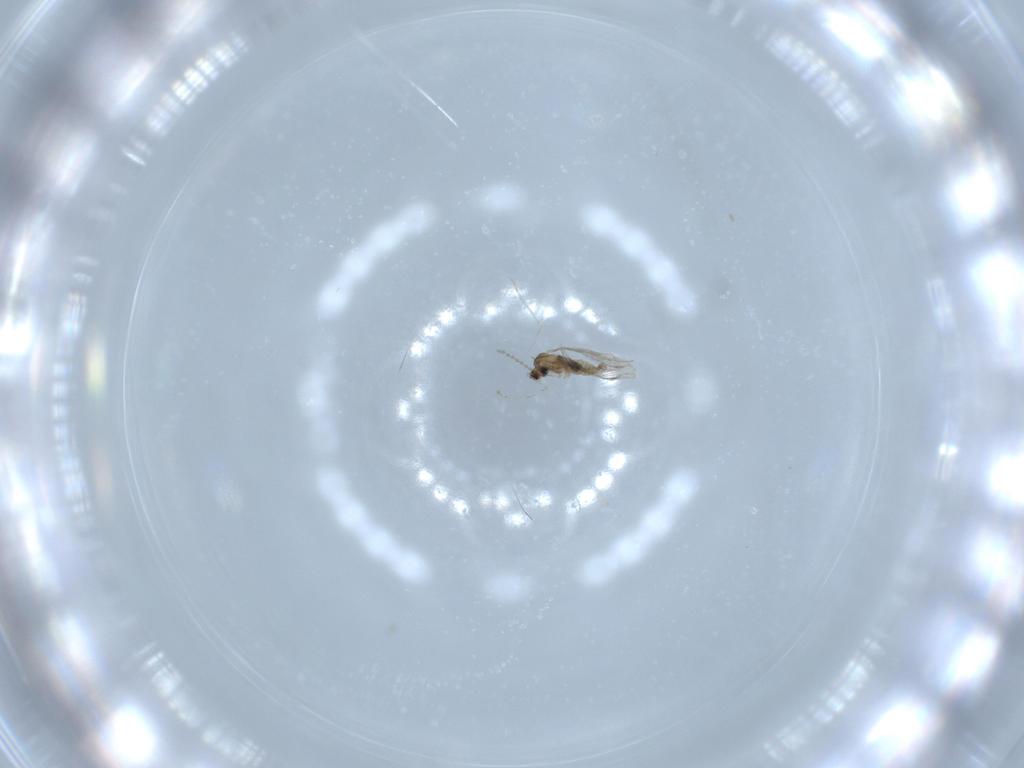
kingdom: Animalia
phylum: Arthropoda
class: Insecta
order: Diptera
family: Cecidomyiidae
